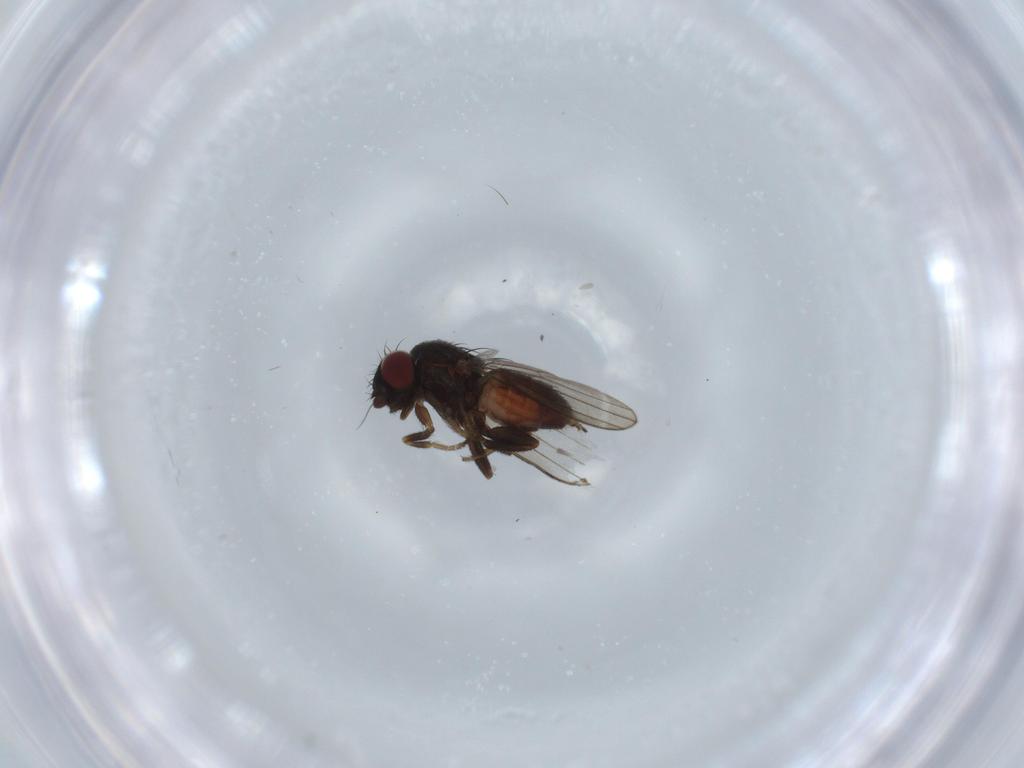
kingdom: Animalia
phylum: Arthropoda
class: Insecta
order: Diptera
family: Milichiidae
